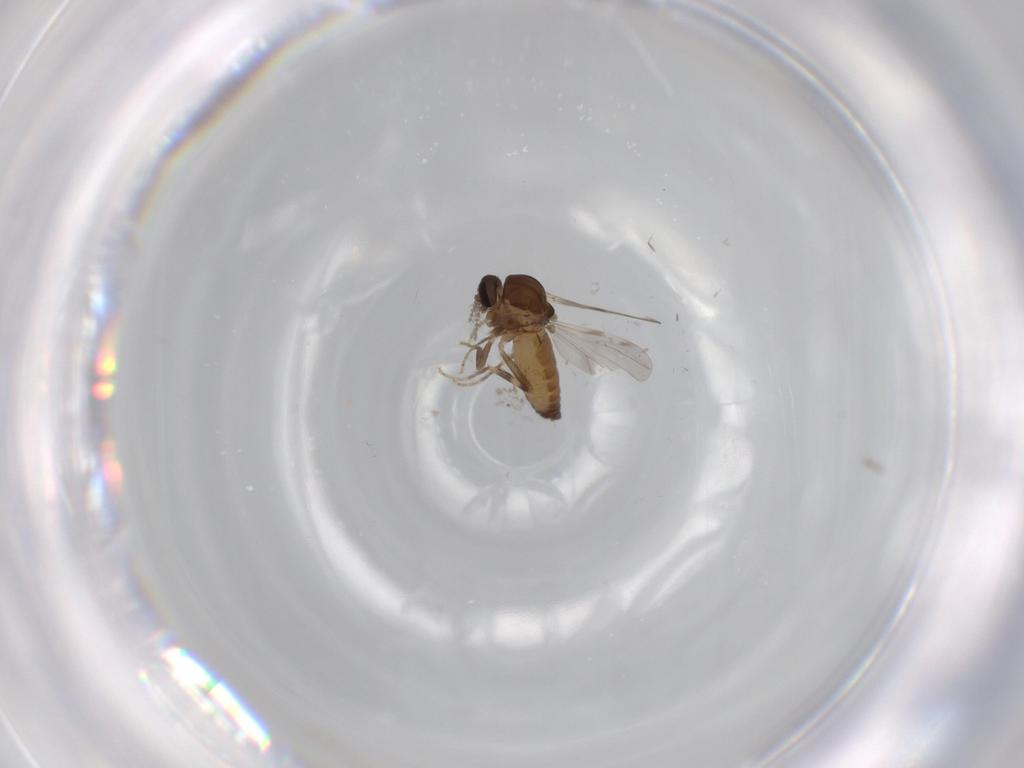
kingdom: Animalia
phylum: Arthropoda
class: Insecta
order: Diptera
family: Ceratopogonidae
